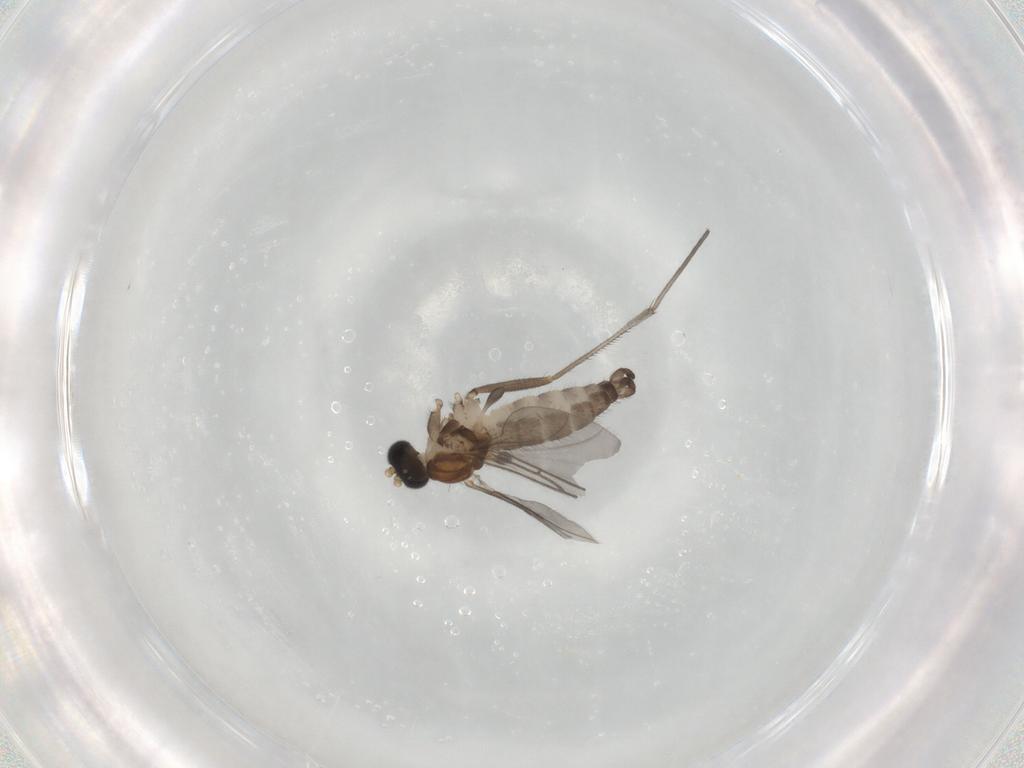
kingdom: Animalia
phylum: Arthropoda
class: Insecta
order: Diptera
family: Sciaridae
